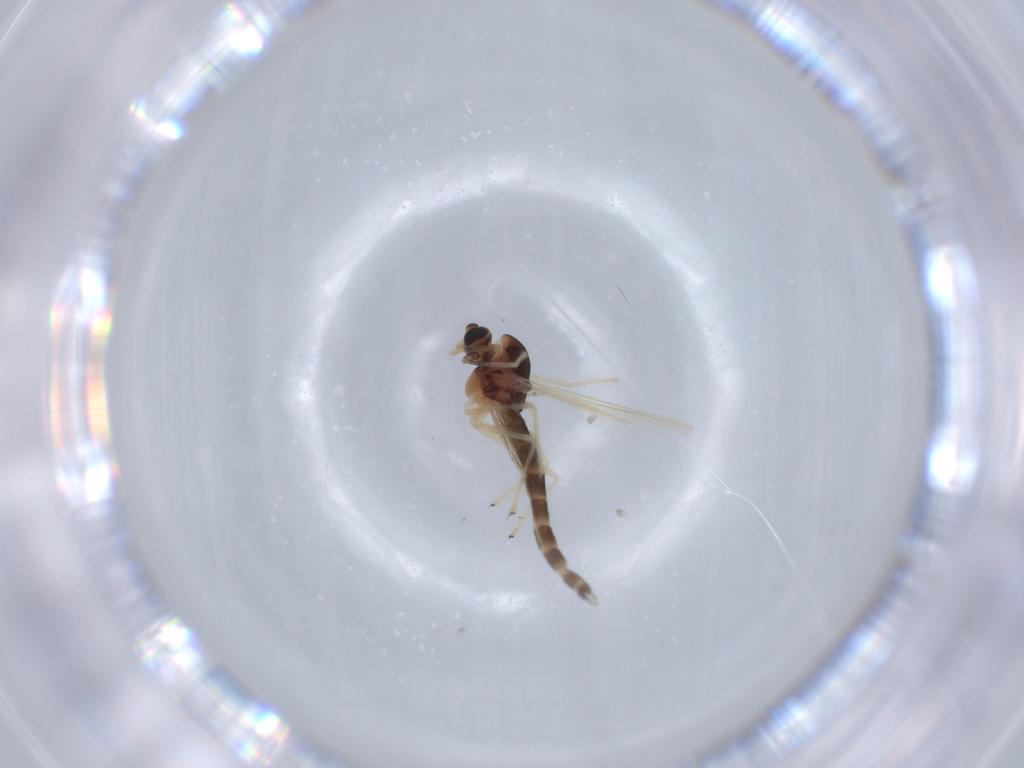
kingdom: Animalia
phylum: Arthropoda
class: Insecta
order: Diptera
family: Chironomidae
